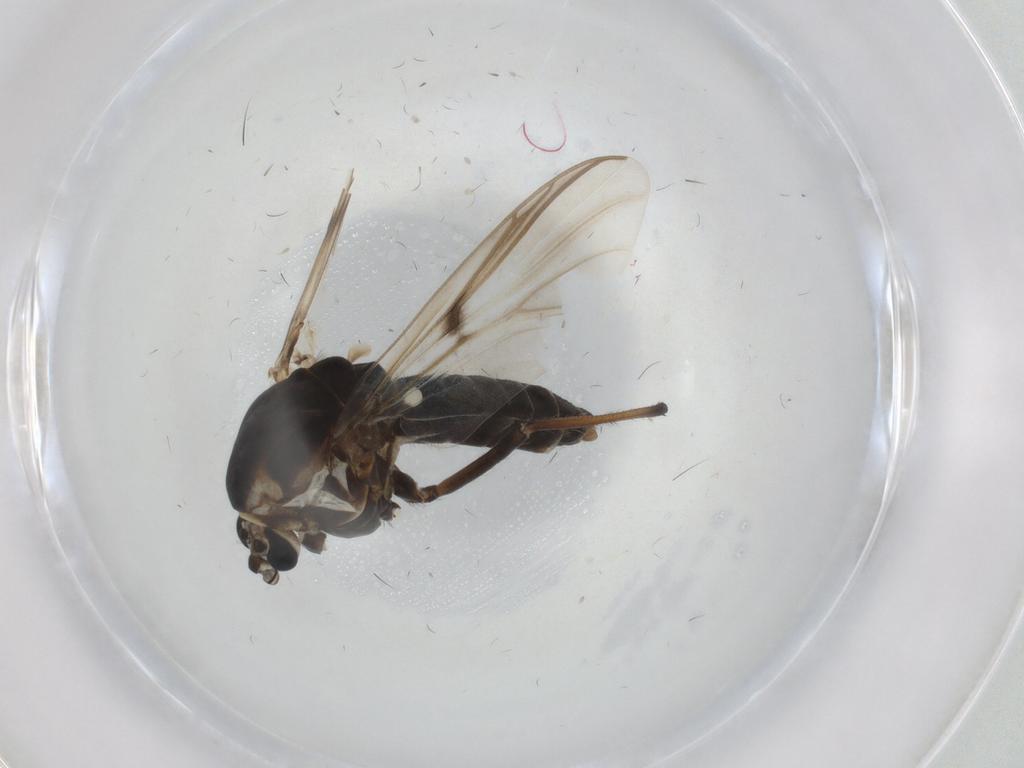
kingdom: Animalia
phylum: Arthropoda
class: Insecta
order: Diptera
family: Chironomidae
